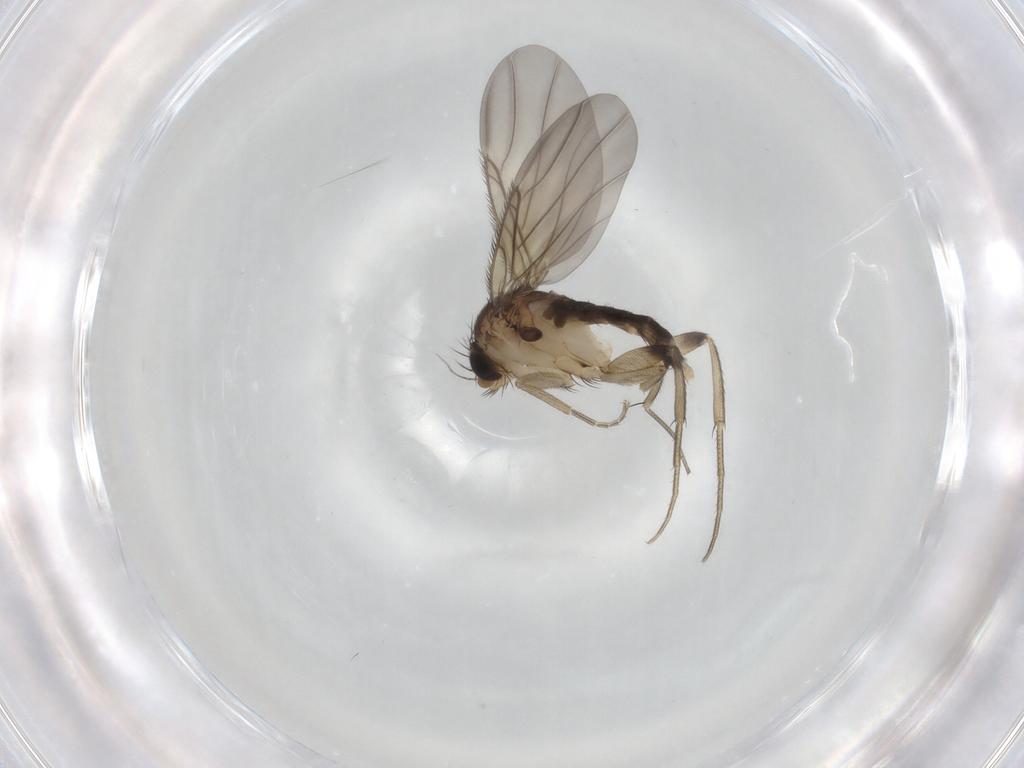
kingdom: Animalia
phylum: Arthropoda
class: Insecta
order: Diptera
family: Phoridae
